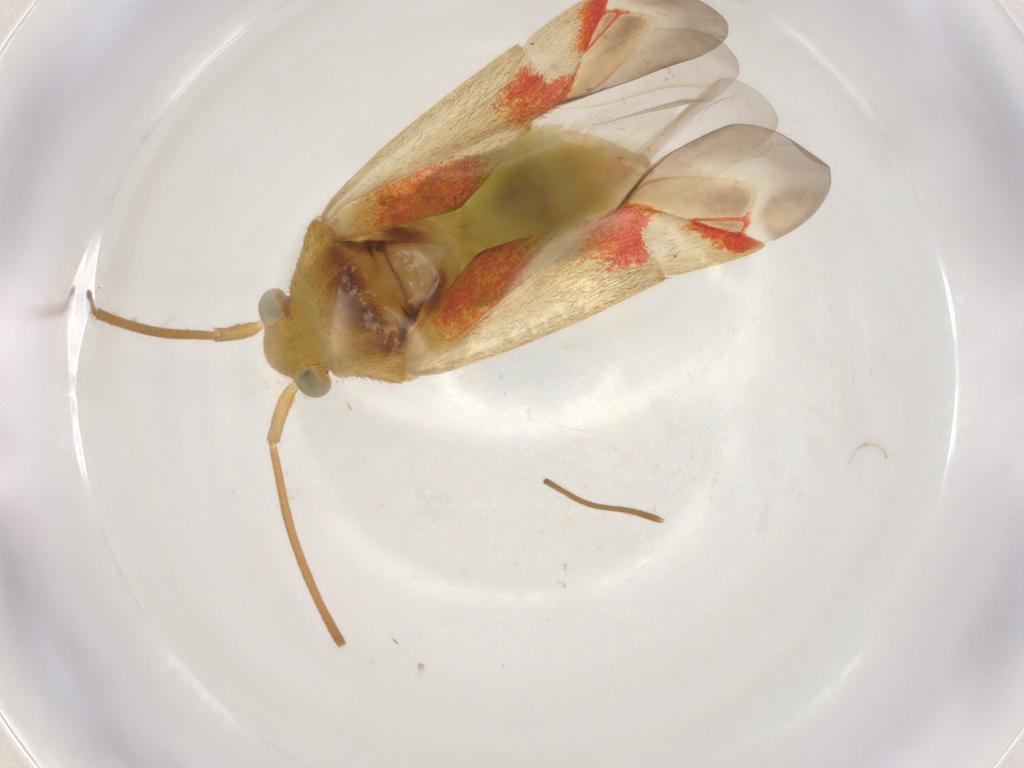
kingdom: Animalia
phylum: Arthropoda
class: Insecta
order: Hemiptera
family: Miridae
